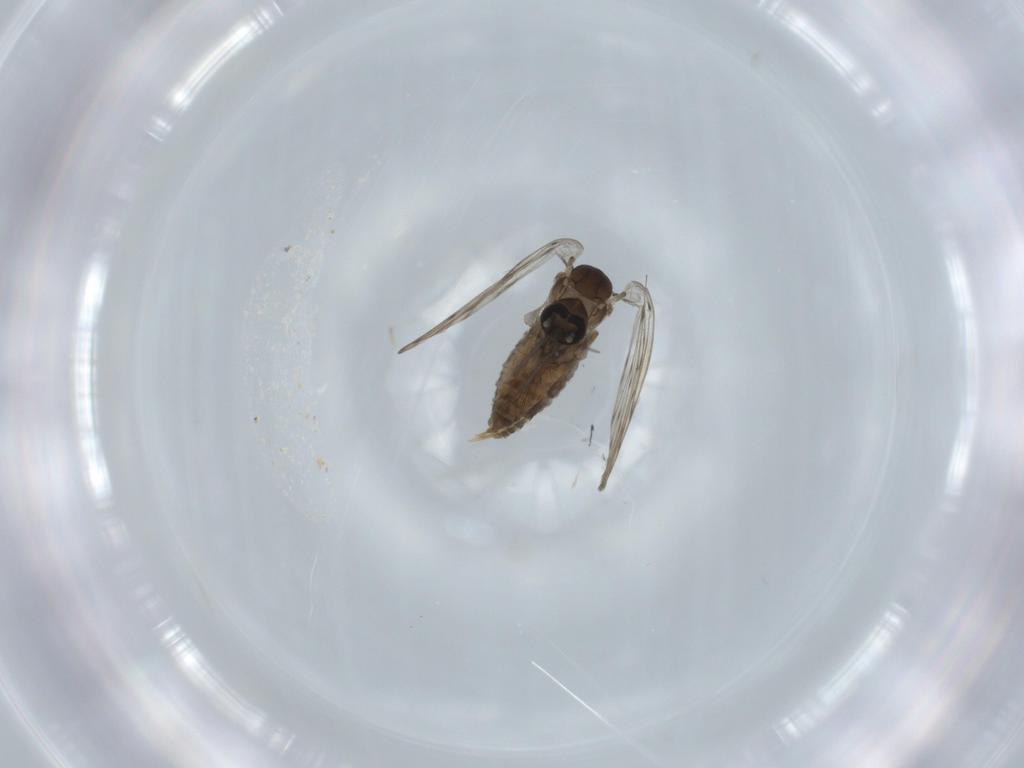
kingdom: Animalia
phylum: Arthropoda
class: Insecta
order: Diptera
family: Psychodidae
